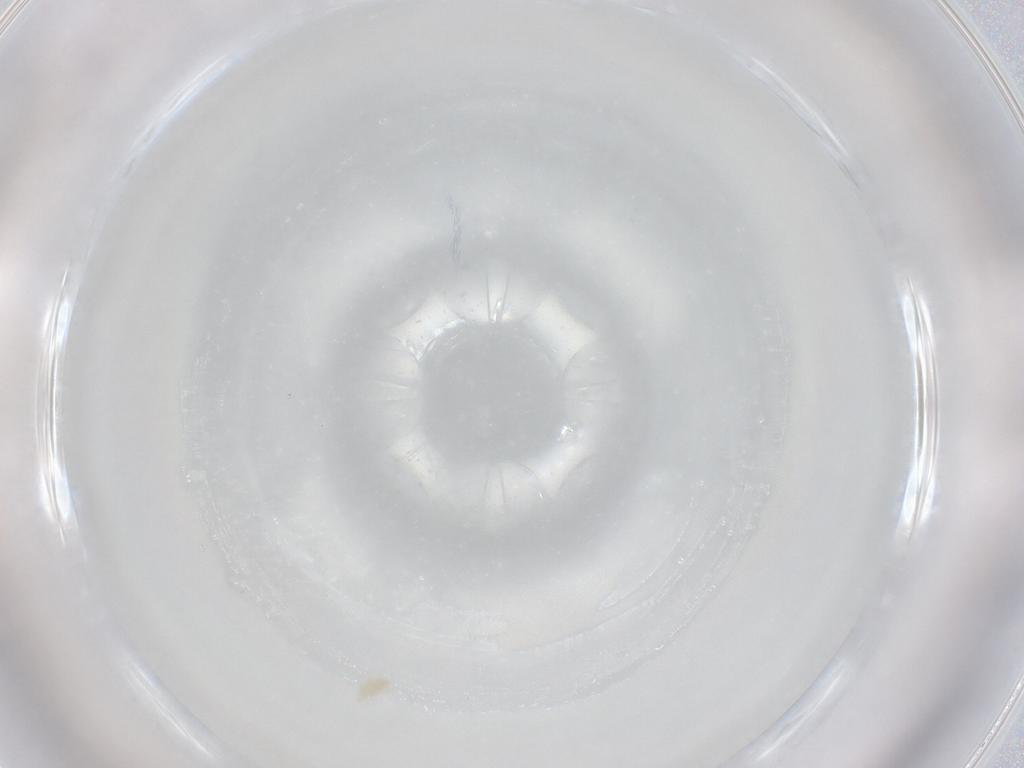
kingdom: Animalia
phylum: Arthropoda
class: Arachnida
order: Trombidiformes
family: Eupodidae
